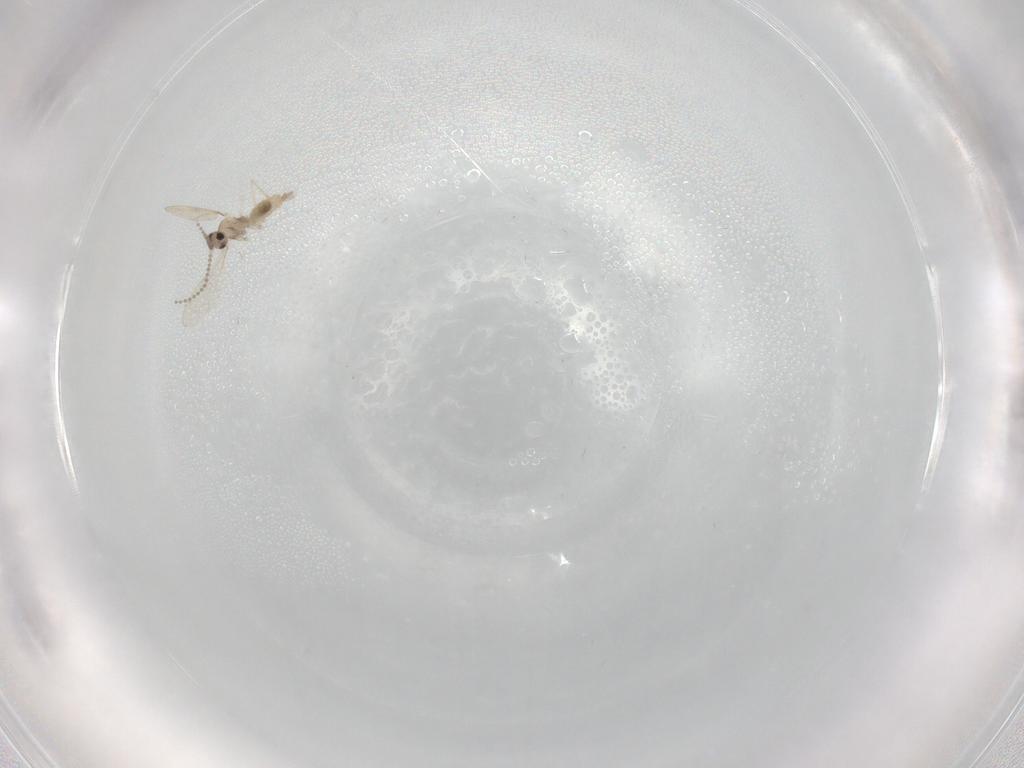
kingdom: Animalia
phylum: Arthropoda
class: Insecta
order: Diptera
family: Cecidomyiidae
